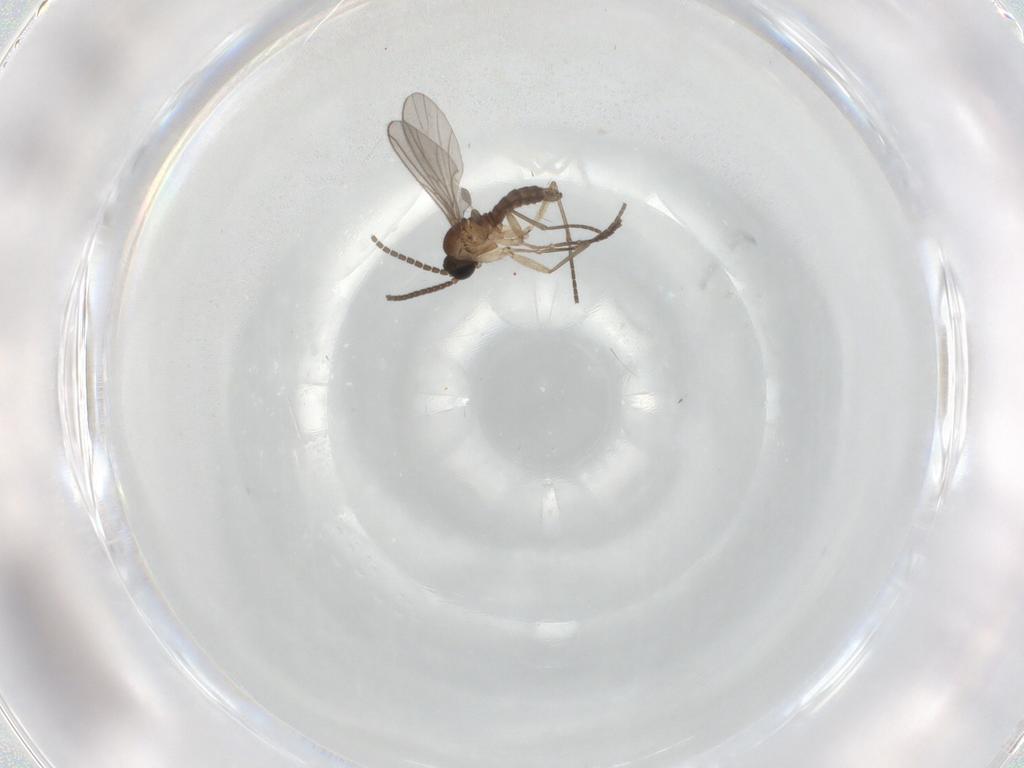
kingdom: Animalia
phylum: Arthropoda
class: Insecta
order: Diptera
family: Sciaridae
